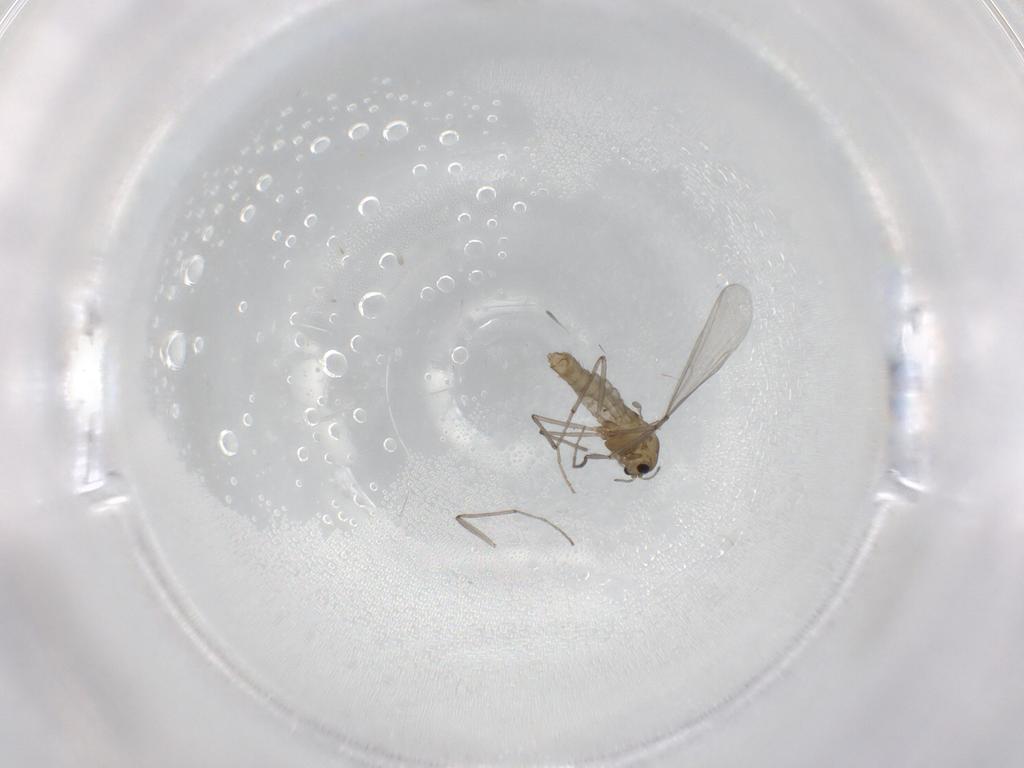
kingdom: Animalia
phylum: Arthropoda
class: Insecta
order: Diptera
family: Chironomidae
